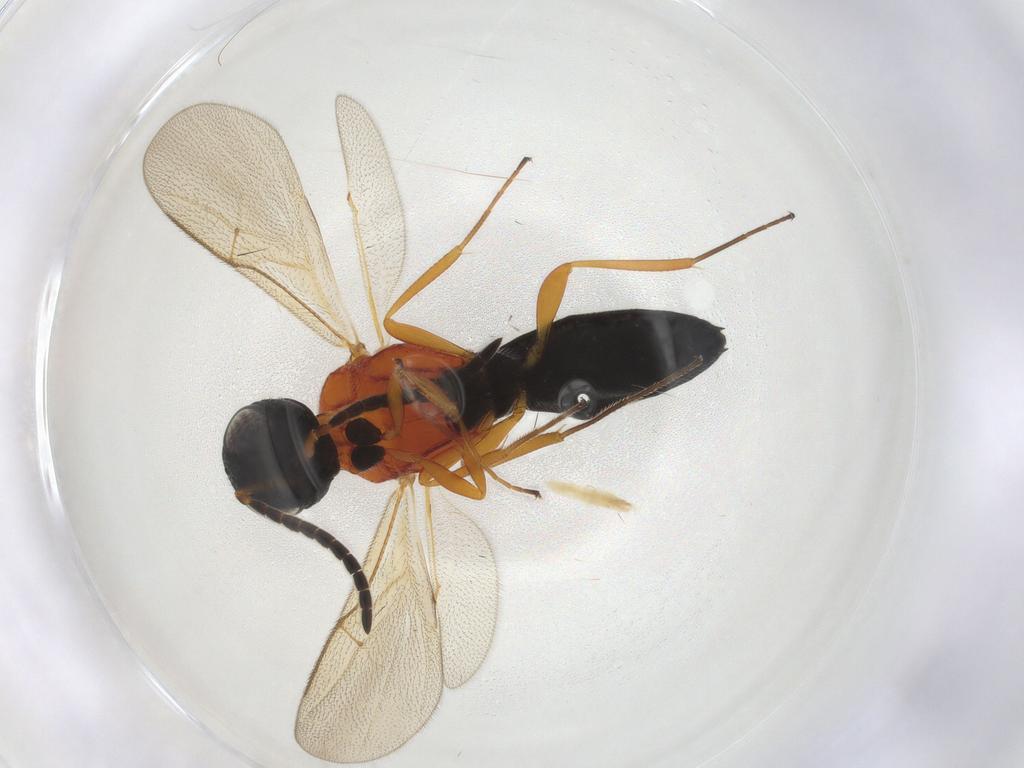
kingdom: Animalia
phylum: Arthropoda
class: Insecta
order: Hymenoptera
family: Scelionidae
